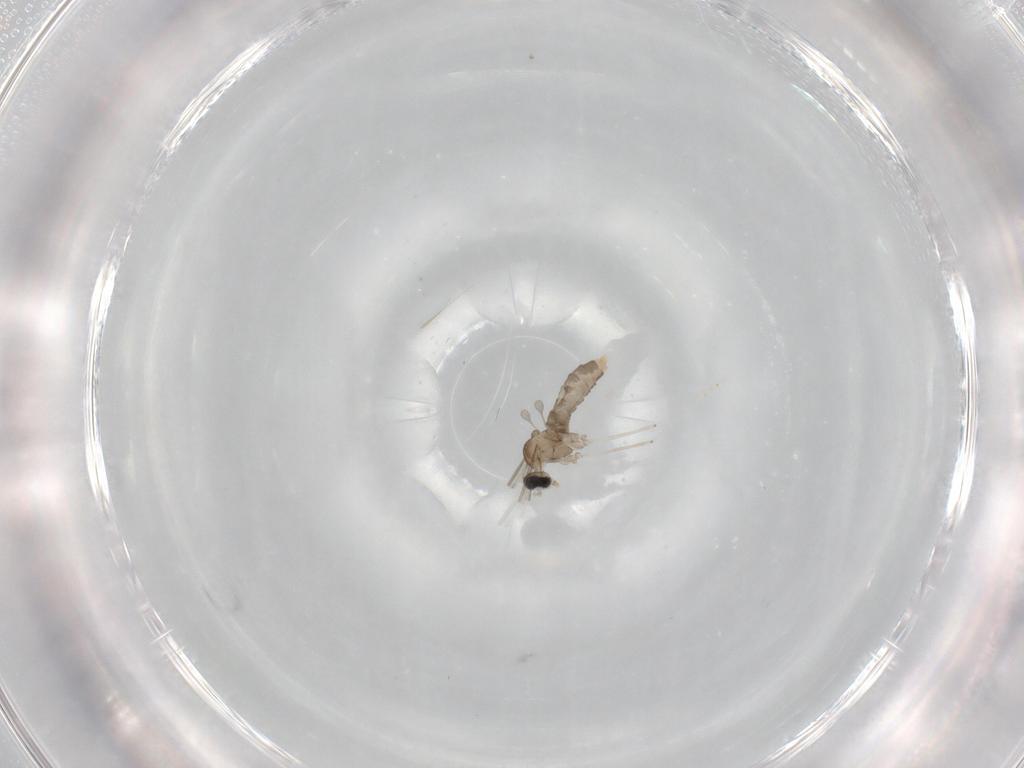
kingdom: Animalia
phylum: Arthropoda
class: Insecta
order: Diptera
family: Cecidomyiidae
